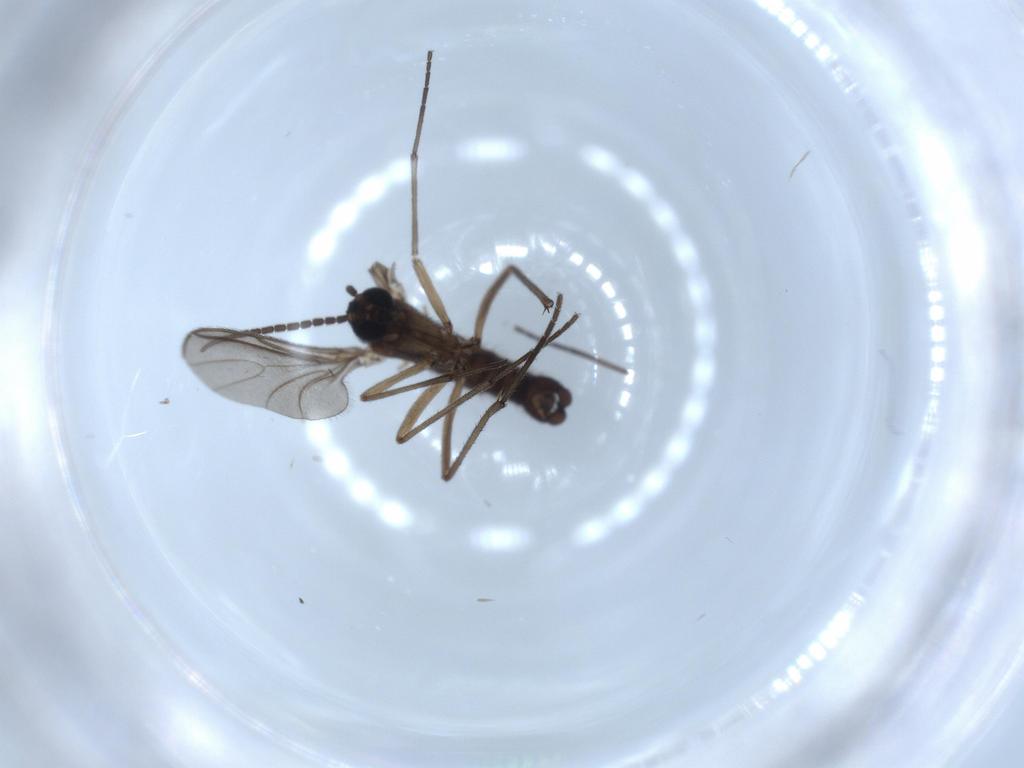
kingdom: Animalia
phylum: Arthropoda
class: Insecta
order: Diptera
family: Sciaridae
